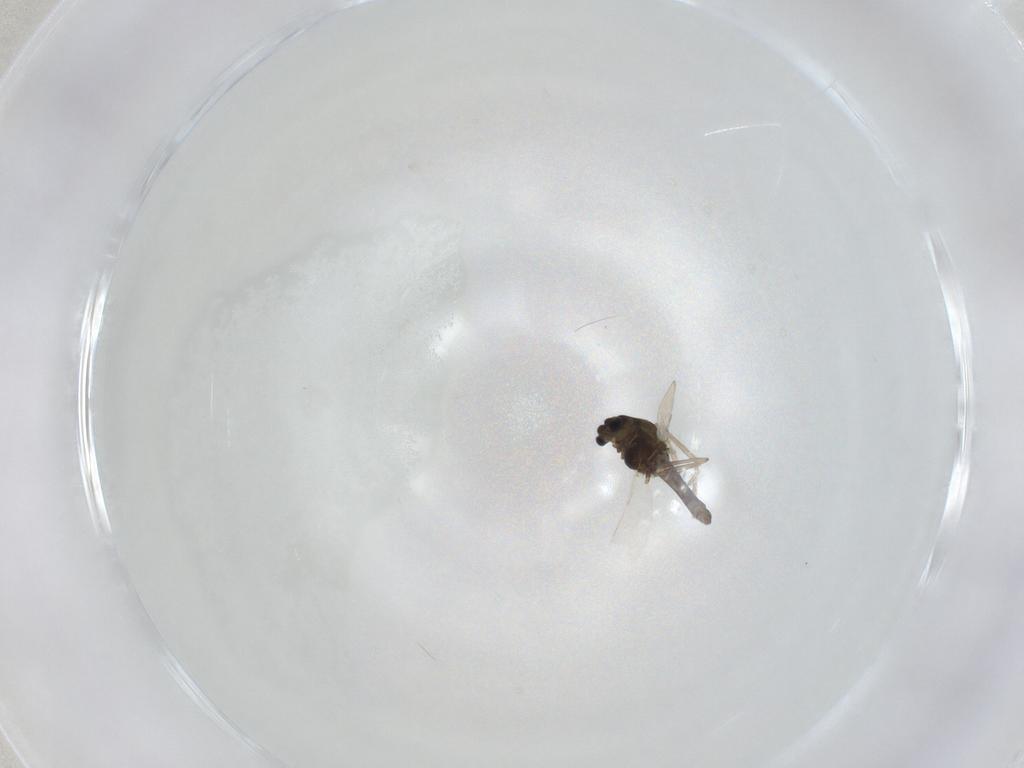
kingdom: Animalia
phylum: Arthropoda
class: Insecta
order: Diptera
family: Chironomidae
